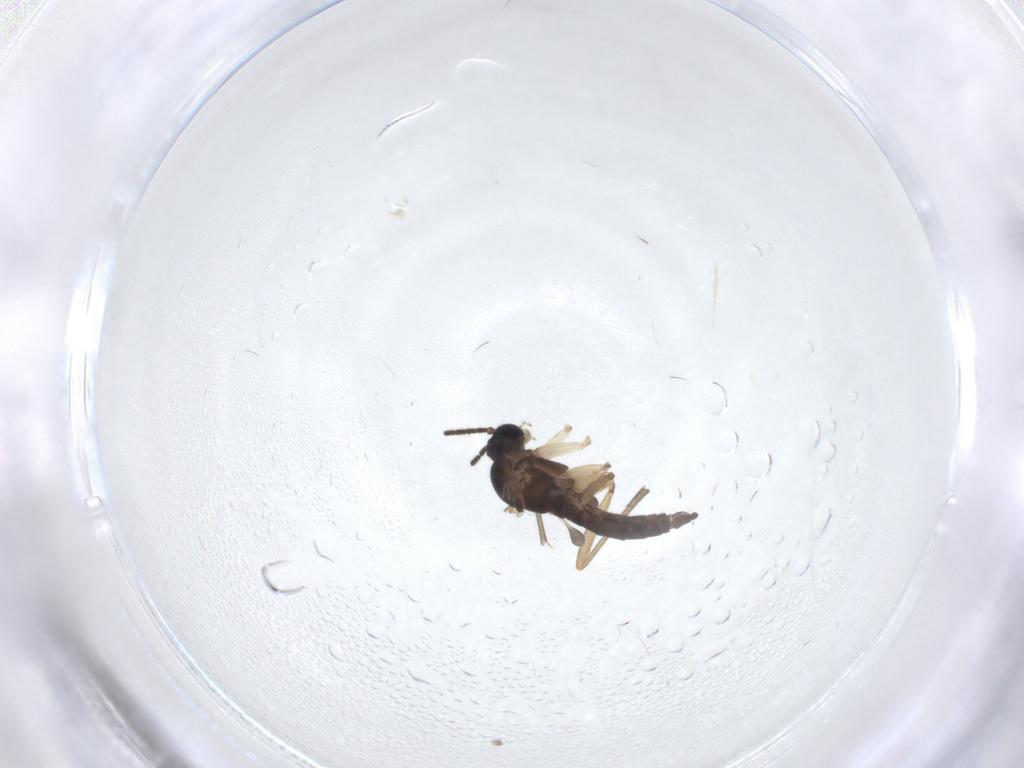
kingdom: Animalia
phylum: Arthropoda
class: Insecta
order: Diptera
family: Sciaridae
